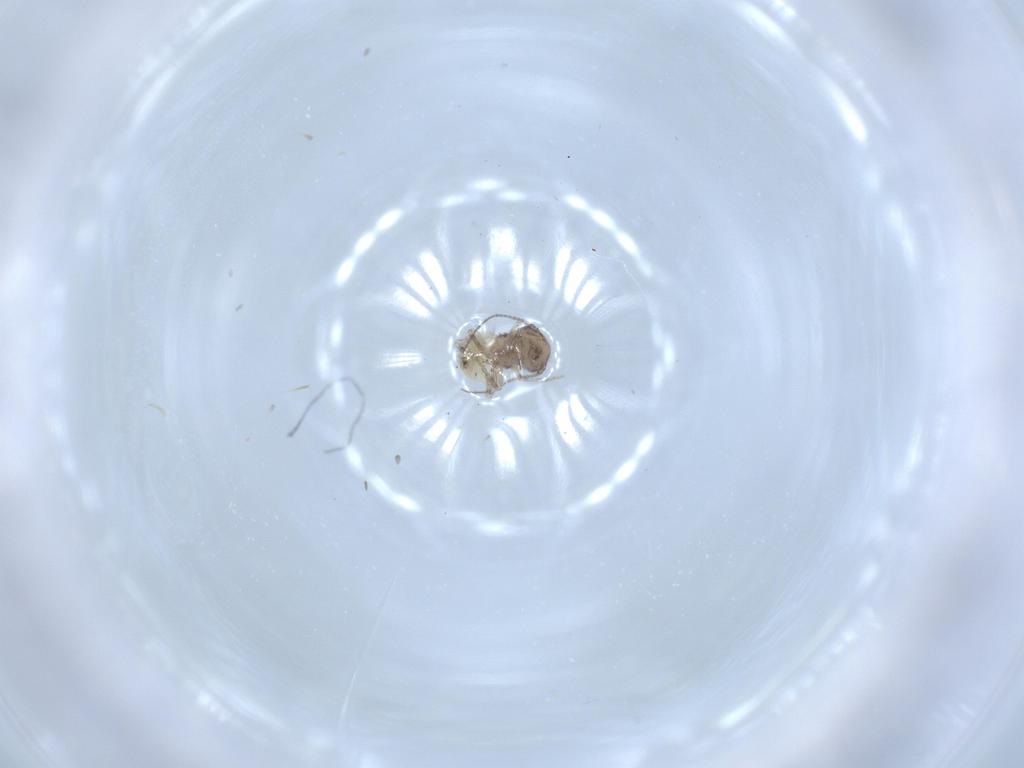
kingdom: Animalia
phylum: Arthropoda
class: Insecta
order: Psocodea
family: Lepidopsocidae
